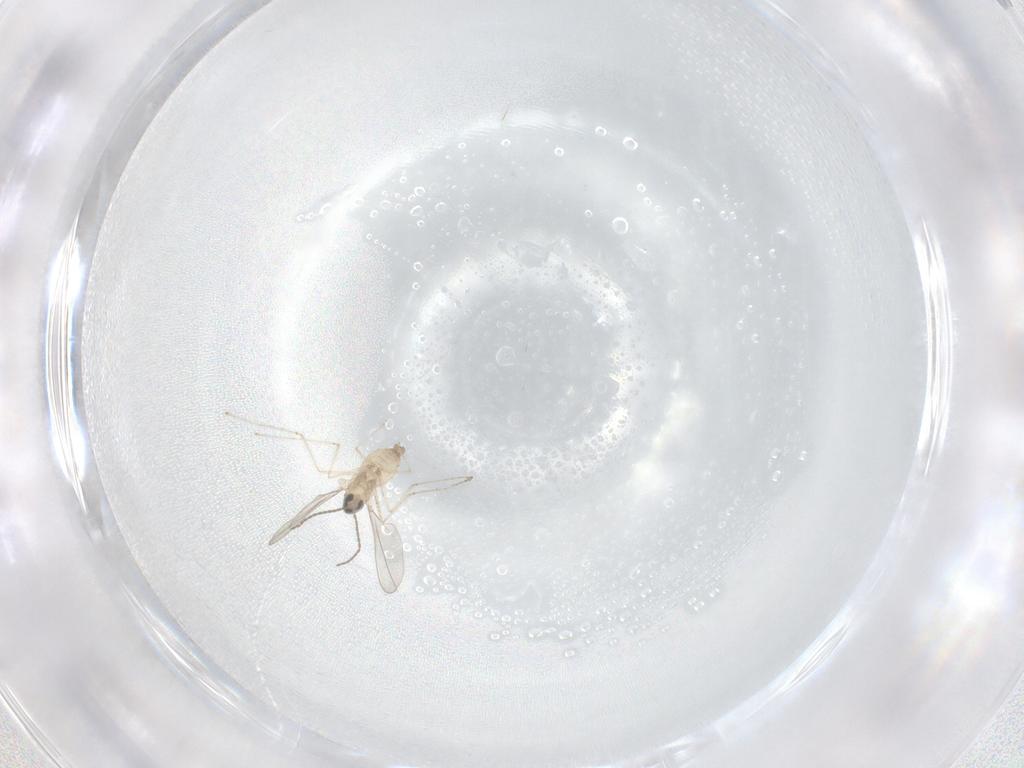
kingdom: Animalia
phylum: Arthropoda
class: Insecta
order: Diptera
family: Cecidomyiidae
